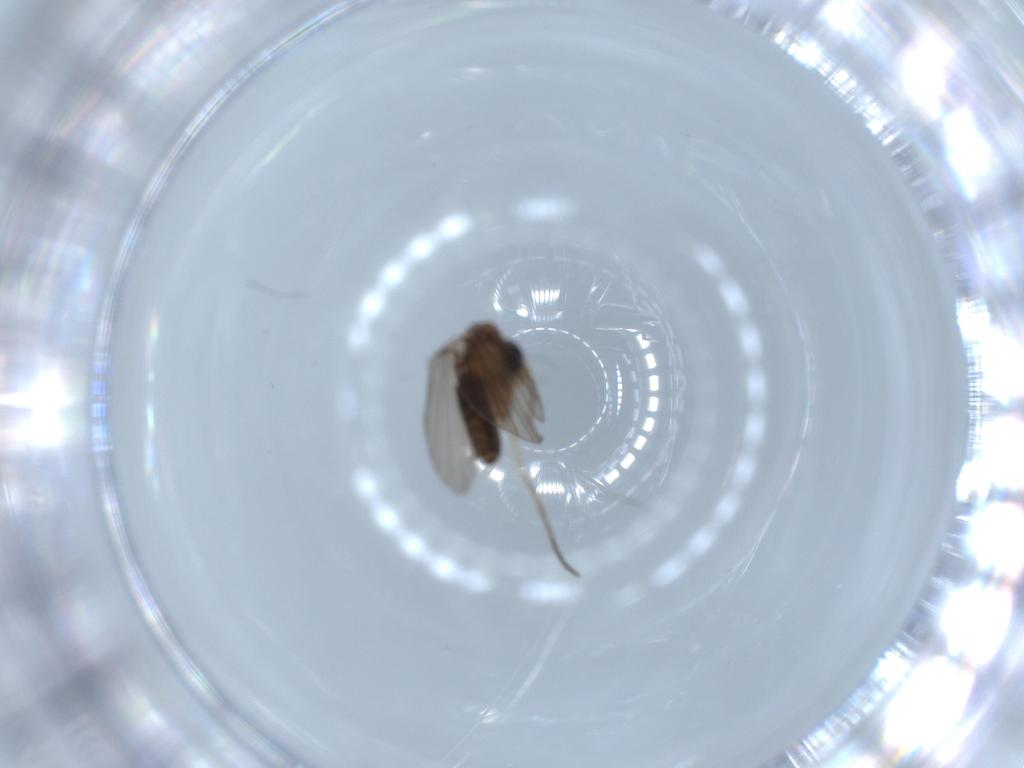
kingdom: Animalia
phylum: Arthropoda
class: Insecta
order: Diptera
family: Psychodidae
